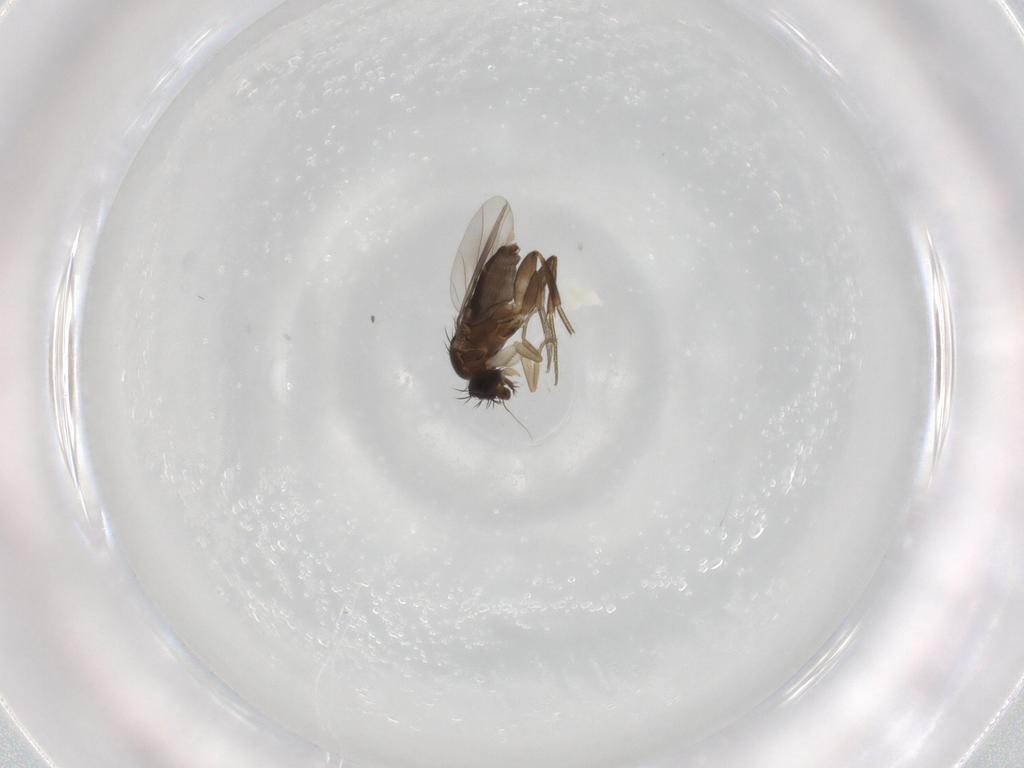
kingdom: Animalia
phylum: Arthropoda
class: Insecta
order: Diptera
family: Phoridae
